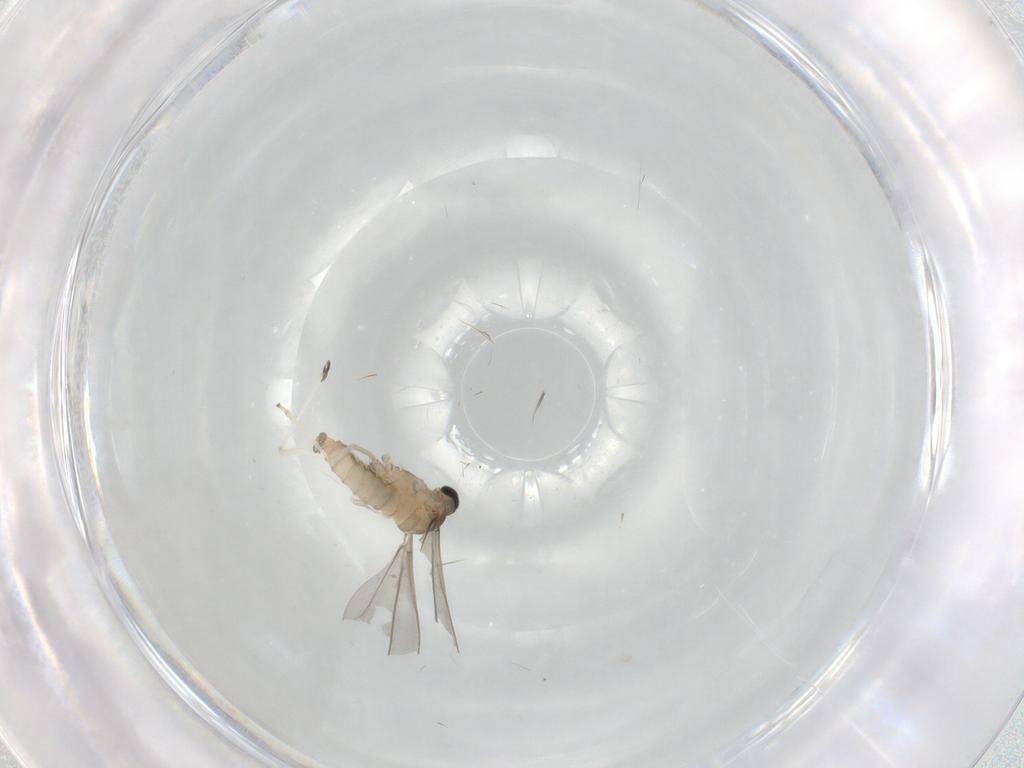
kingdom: Animalia
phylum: Arthropoda
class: Insecta
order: Diptera
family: Cecidomyiidae
